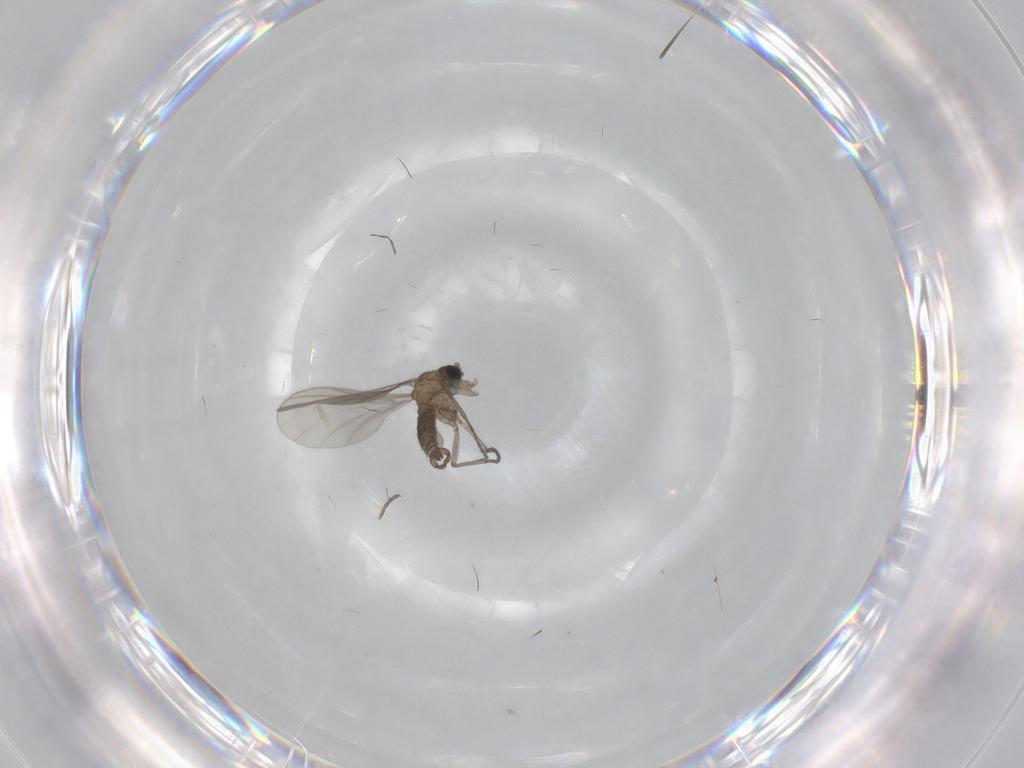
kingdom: Animalia
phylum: Arthropoda
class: Insecta
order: Diptera
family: Sciaridae
